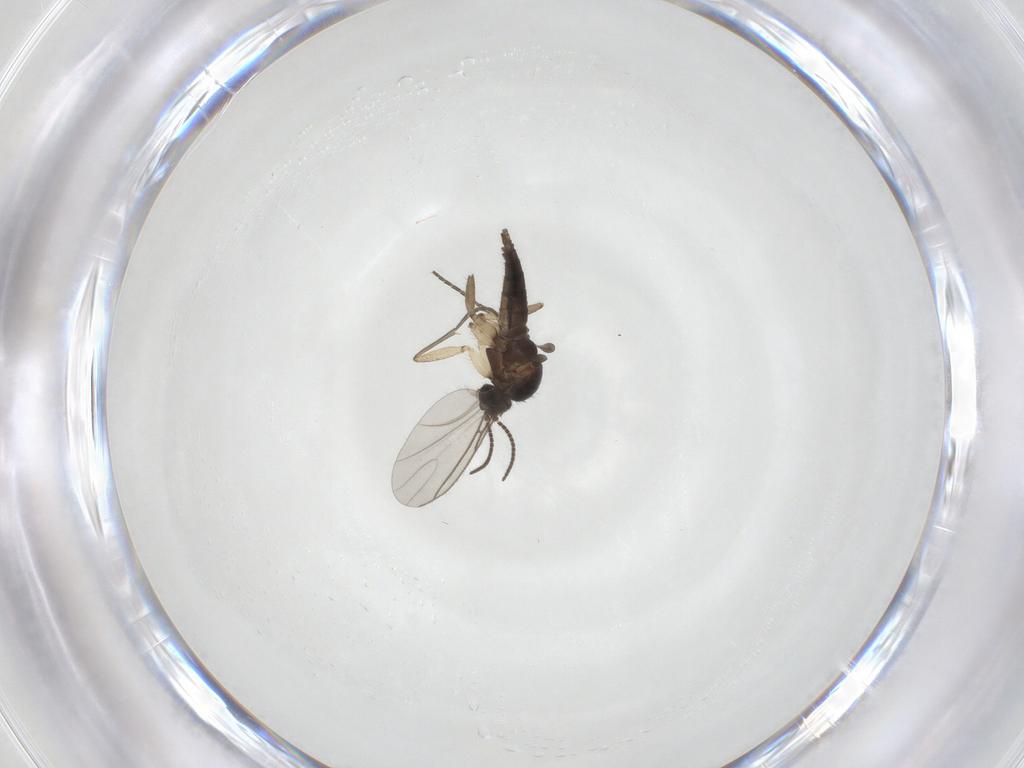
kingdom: Animalia
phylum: Arthropoda
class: Insecta
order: Diptera
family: Sciaridae
